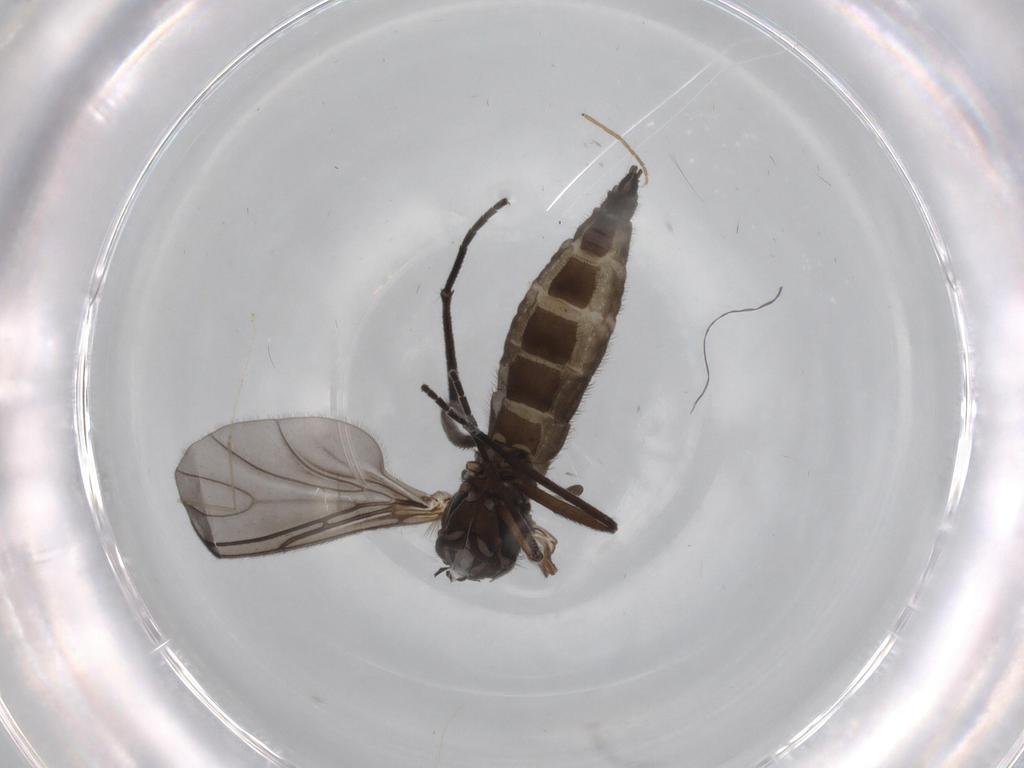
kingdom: Animalia
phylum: Arthropoda
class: Insecta
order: Diptera
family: Sciaridae
